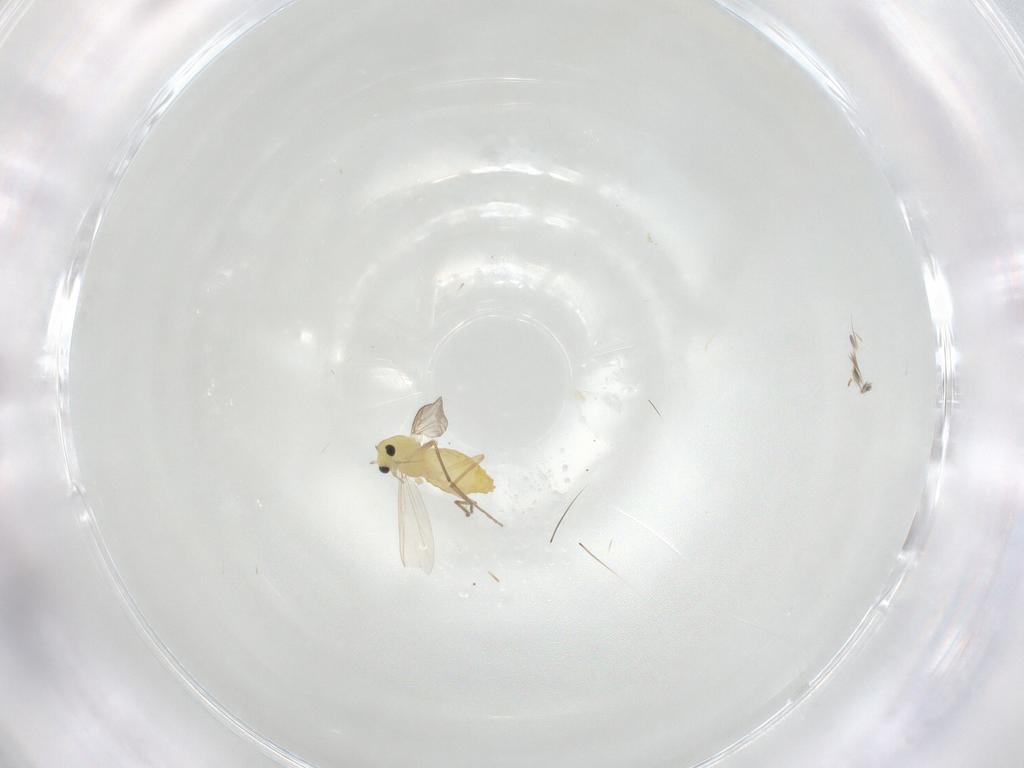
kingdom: Animalia
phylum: Arthropoda
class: Insecta
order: Diptera
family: Chironomidae
